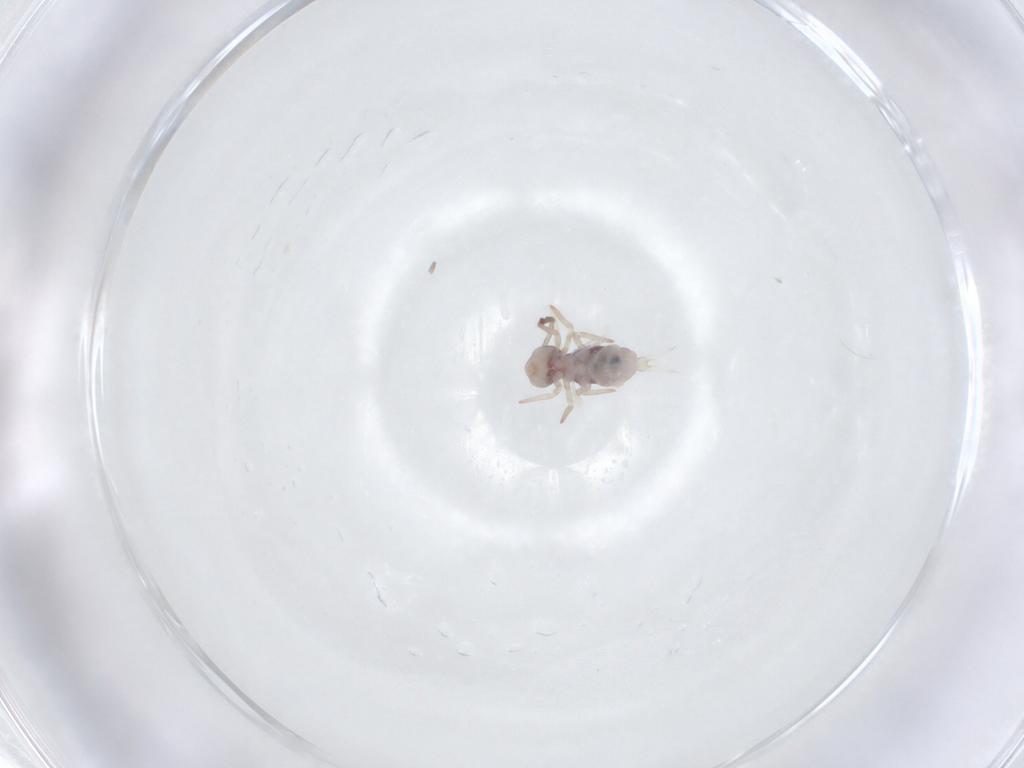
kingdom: Animalia
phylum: Arthropoda
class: Collembola
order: Symphypleona
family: Dicyrtomidae
